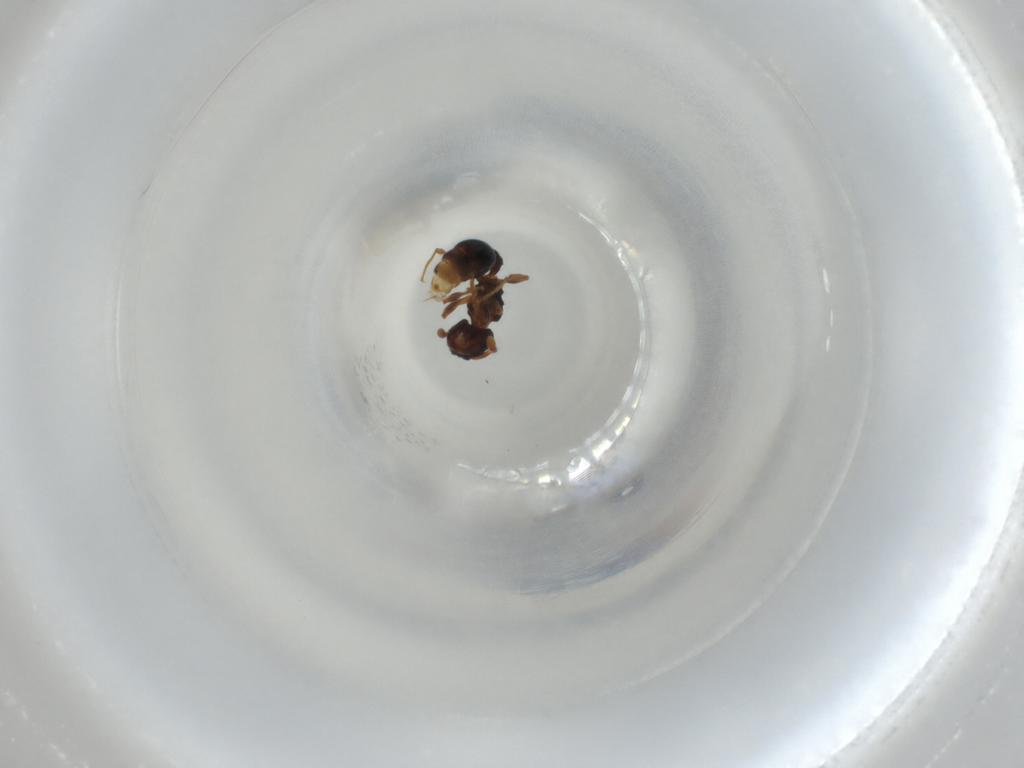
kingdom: Animalia
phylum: Arthropoda
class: Insecta
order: Hymenoptera
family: Formicidae
